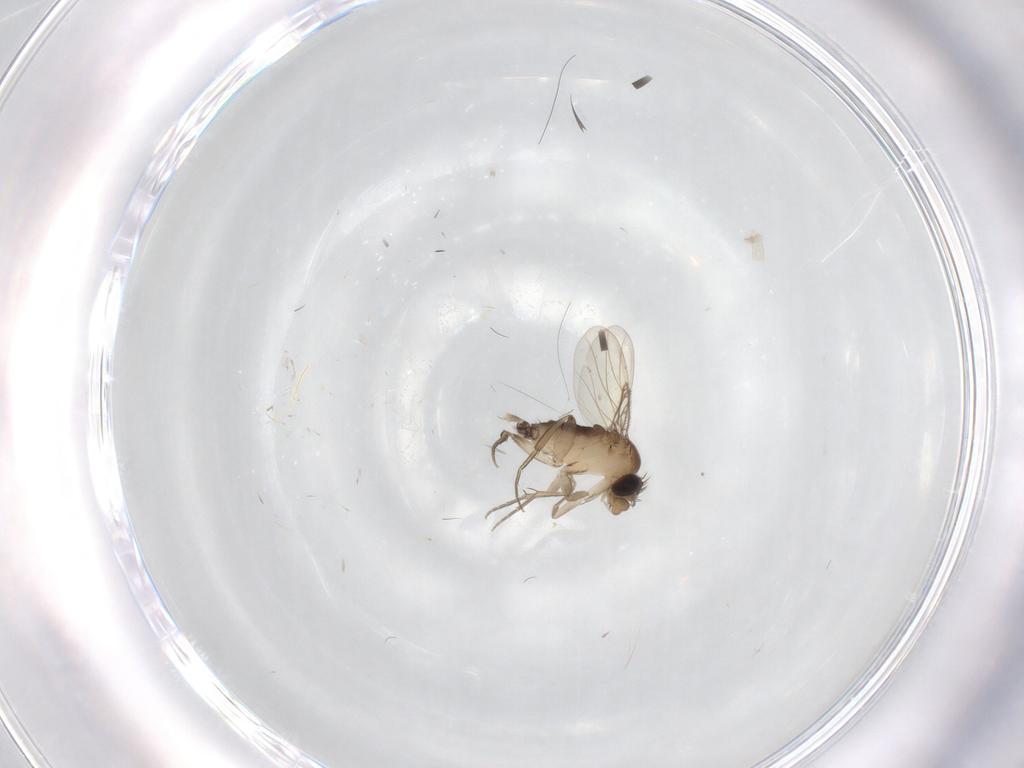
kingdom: Animalia
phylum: Arthropoda
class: Insecta
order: Diptera
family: Phoridae
